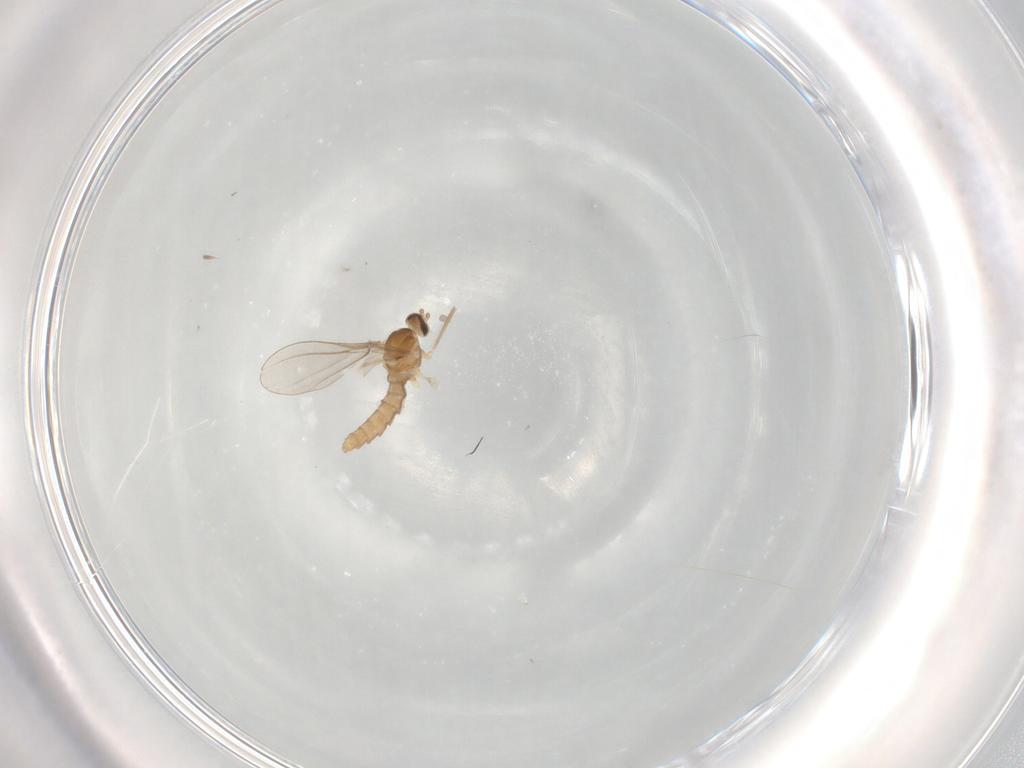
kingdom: Animalia
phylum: Arthropoda
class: Insecta
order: Diptera
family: Cecidomyiidae
